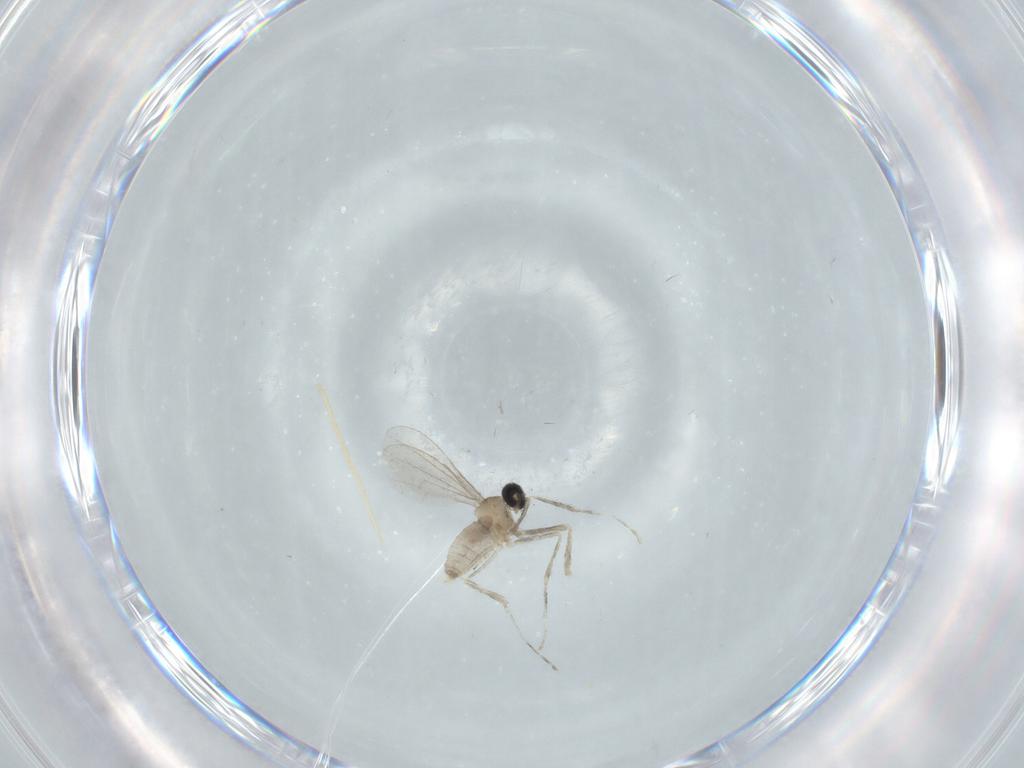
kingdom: Animalia
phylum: Arthropoda
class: Insecta
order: Diptera
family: Cecidomyiidae
